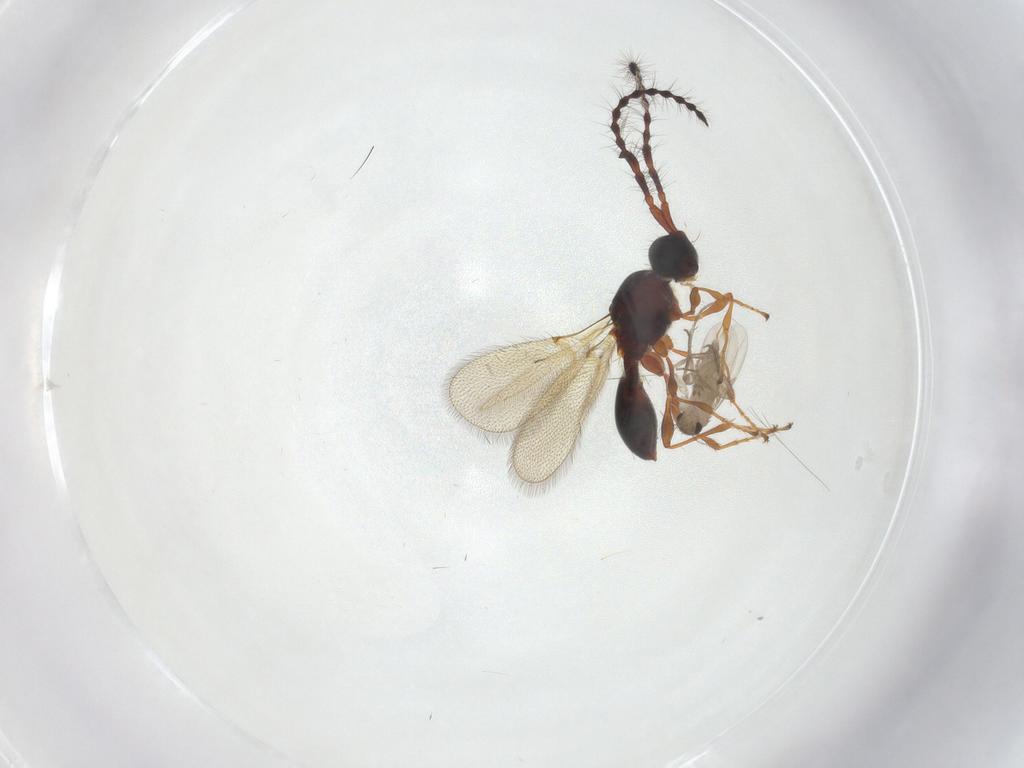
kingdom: Animalia
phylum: Arthropoda
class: Insecta
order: Hymenoptera
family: Diapriidae
